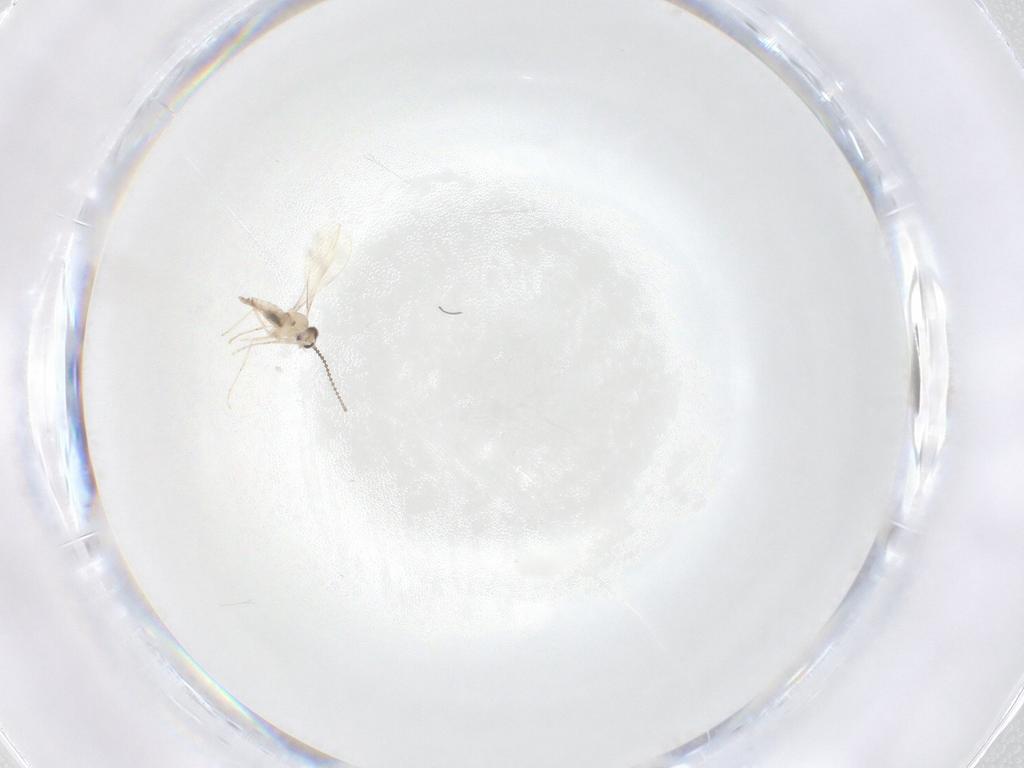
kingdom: Animalia
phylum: Arthropoda
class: Insecta
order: Diptera
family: Cecidomyiidae
